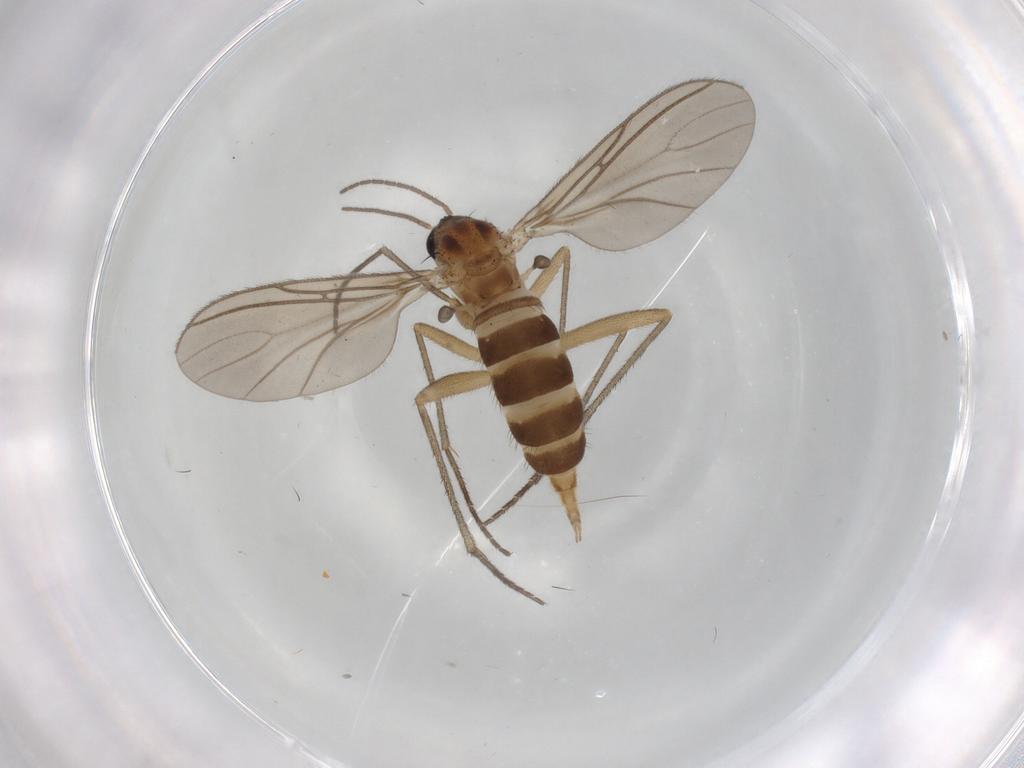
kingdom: Animalia
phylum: Arthropoda
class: Insecta
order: Diptera
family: Sciaridae
